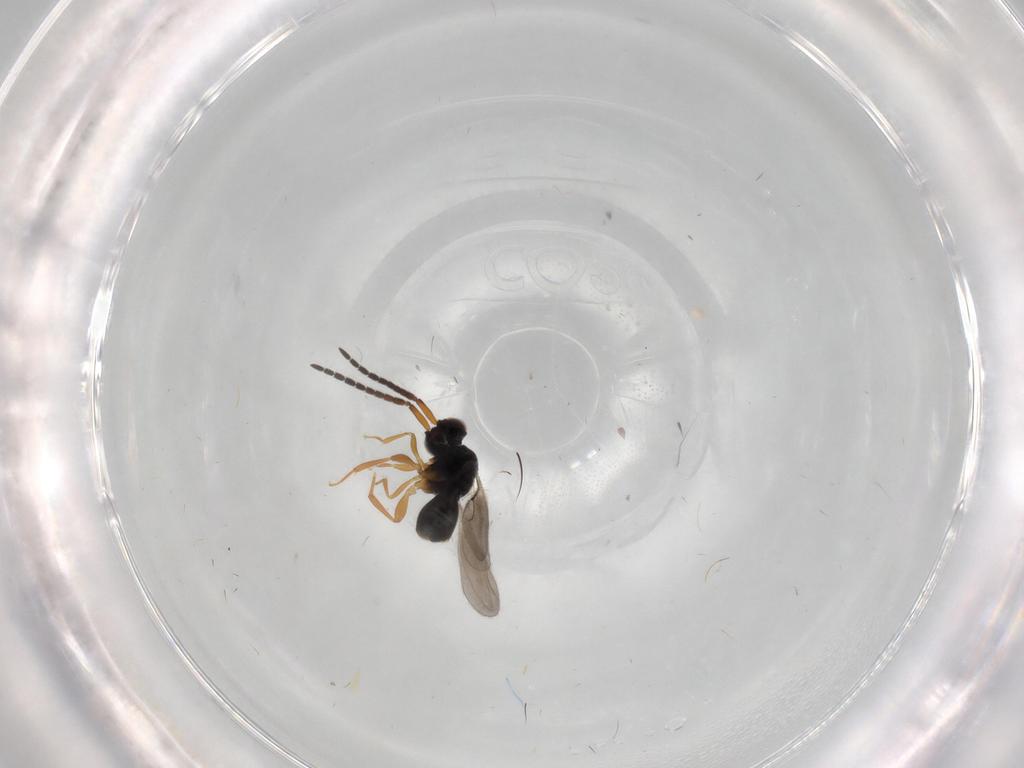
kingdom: Animalia
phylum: Arthropoda
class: Insecta
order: Hymenoptera
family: Ceraphronidae
